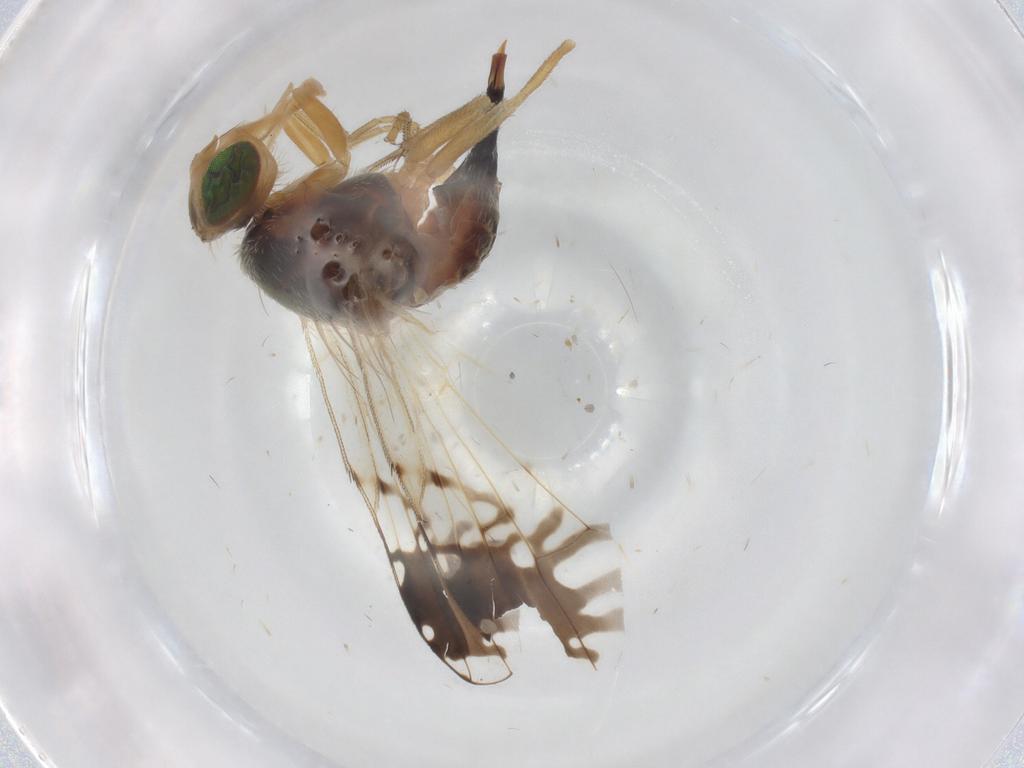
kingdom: Animalia
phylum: Arthropoda
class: Insecta
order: Diptera
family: Tephritidae
